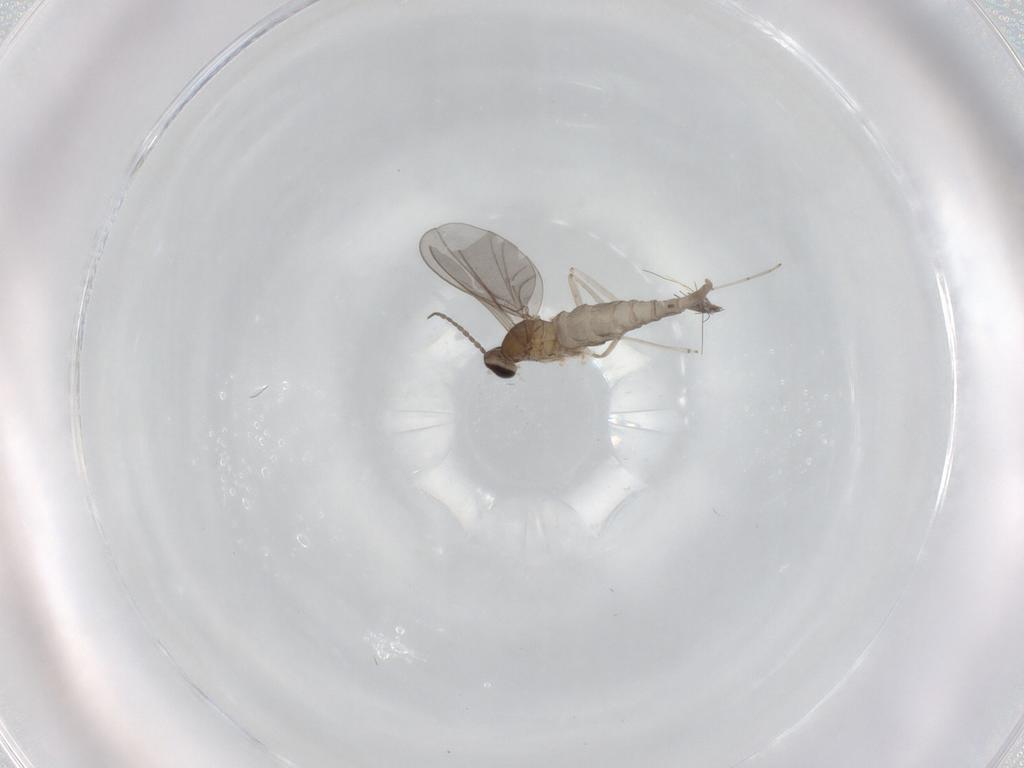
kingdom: Animalia
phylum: Arthropoda
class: Insecta
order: Diptera
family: Cecidomyiidae
